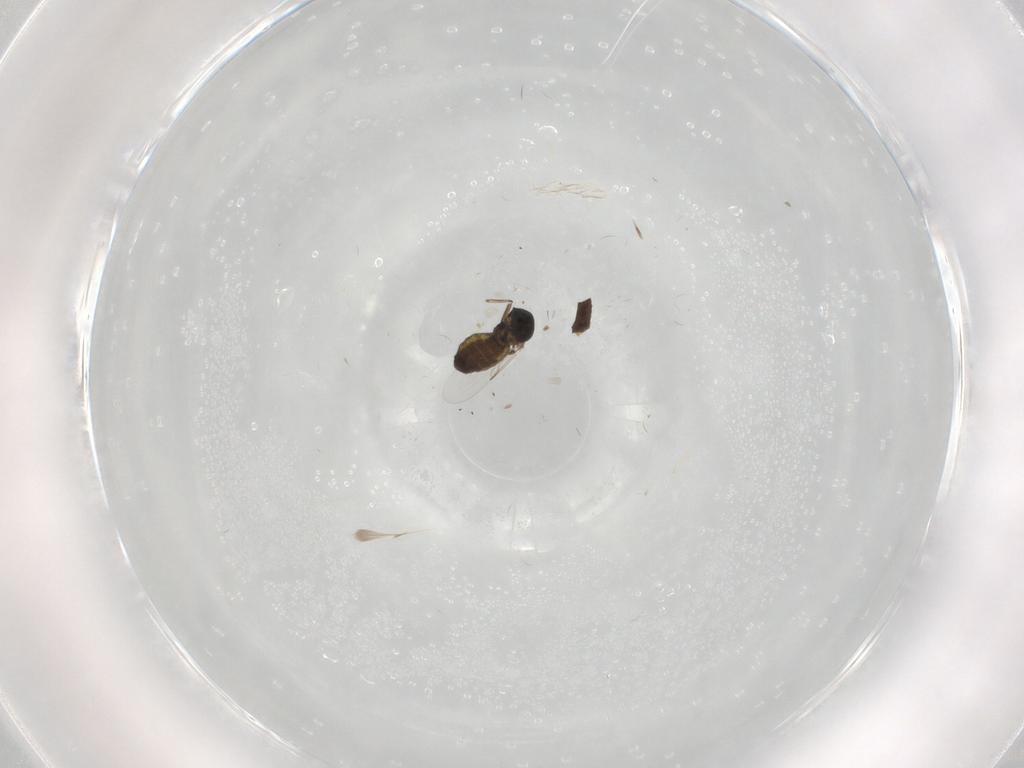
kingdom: Animalia
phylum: Arthropoda
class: Insecta
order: Diptera
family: Ceratopogonidae
